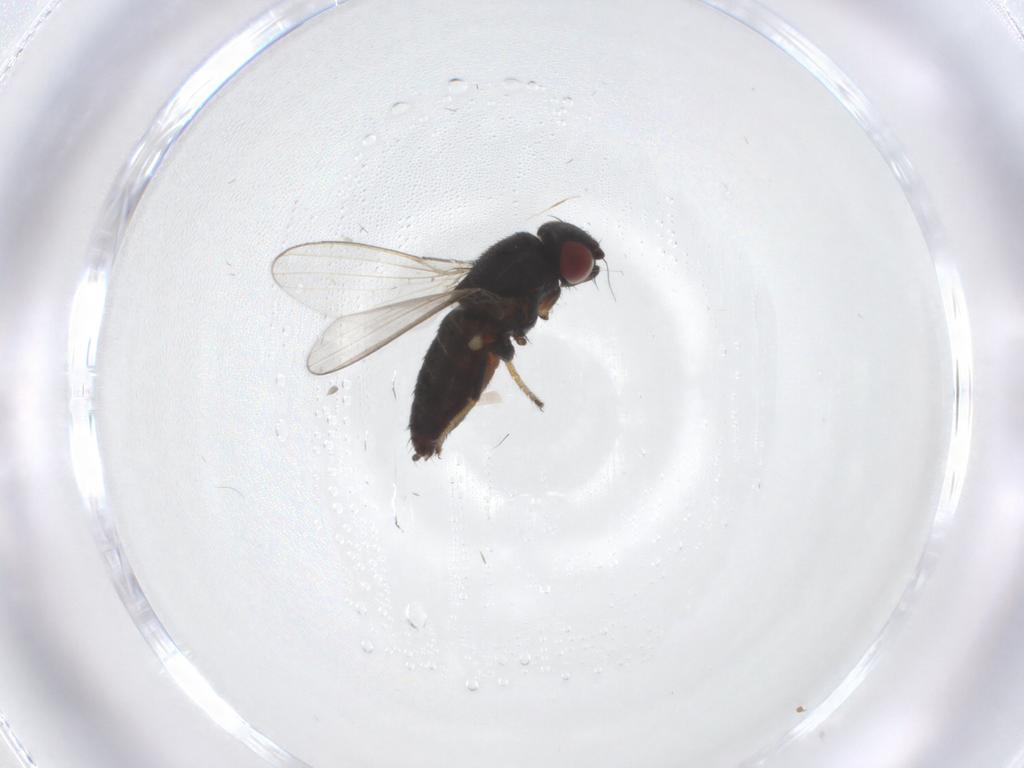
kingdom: Animalia
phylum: Arthropoda
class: Insecta
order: Diptera
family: Milichiidae
